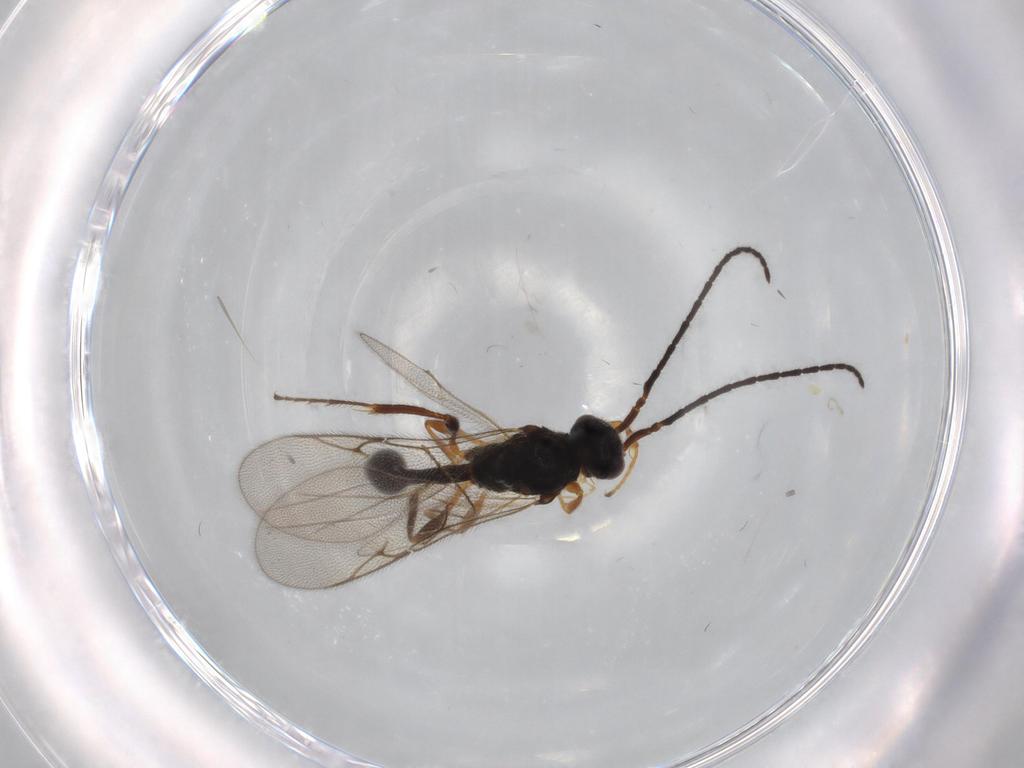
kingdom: Animalia
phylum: Arthropoda
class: Insecta
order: Hymenoptera
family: Diapriidae
